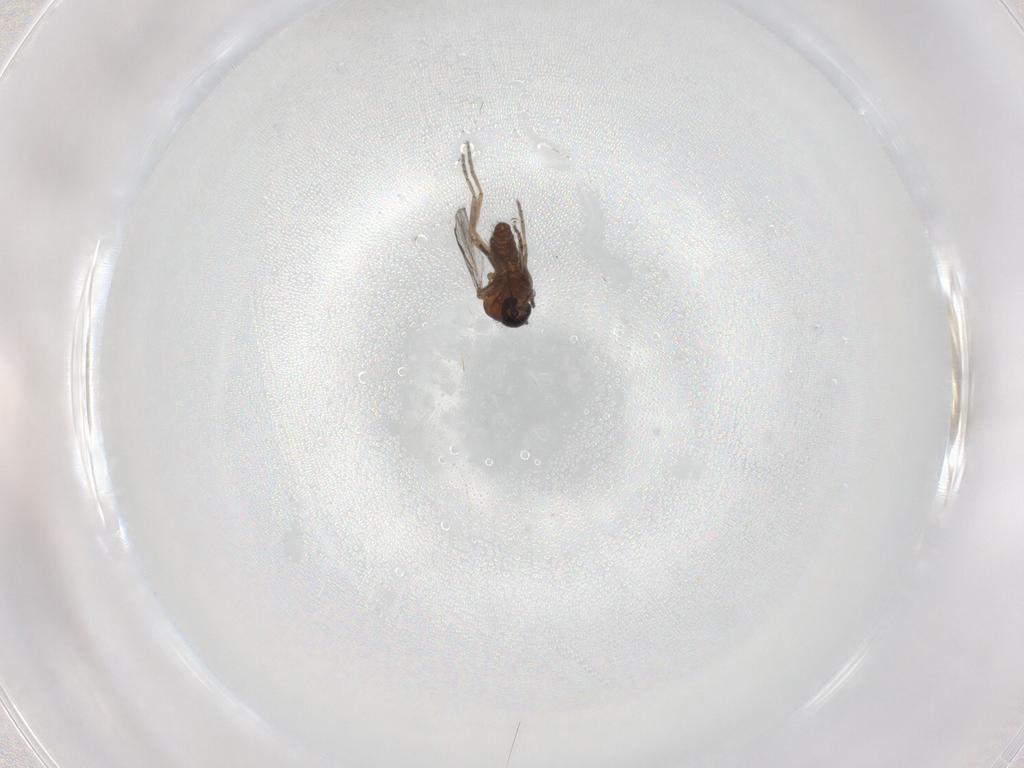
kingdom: Animalia
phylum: Arthropoda
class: Insecta
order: Diptera
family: Ceratopogonidae
